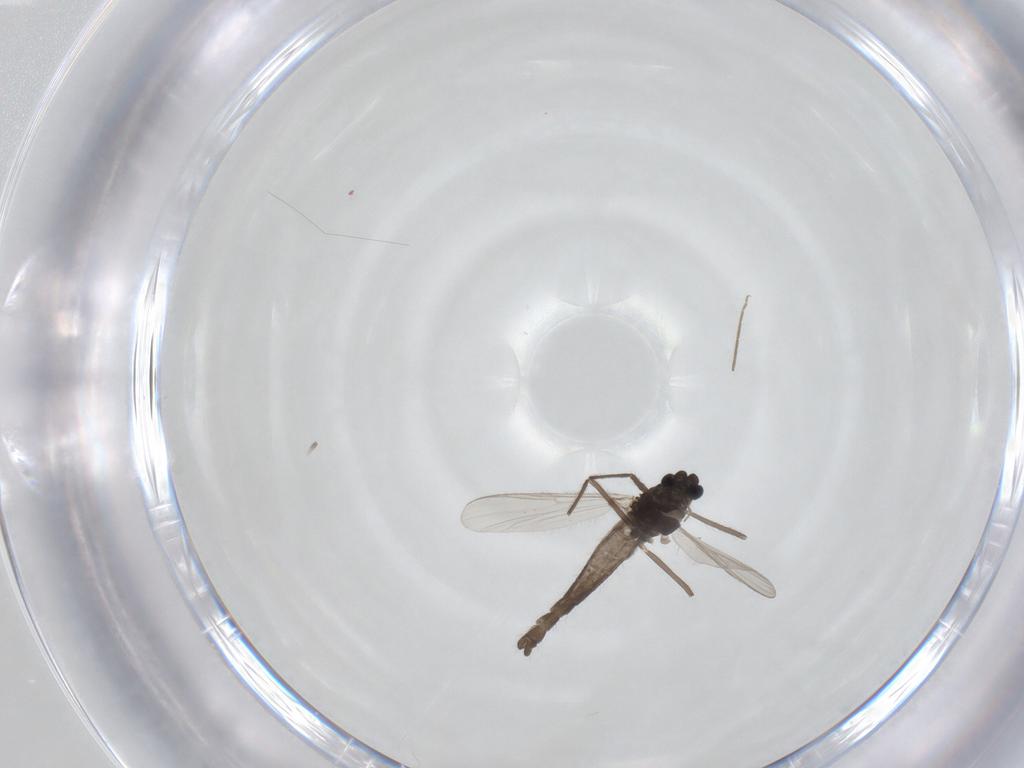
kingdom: Animalia
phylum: Arthropoda
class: Insecta
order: Diptera
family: Chironomidae
